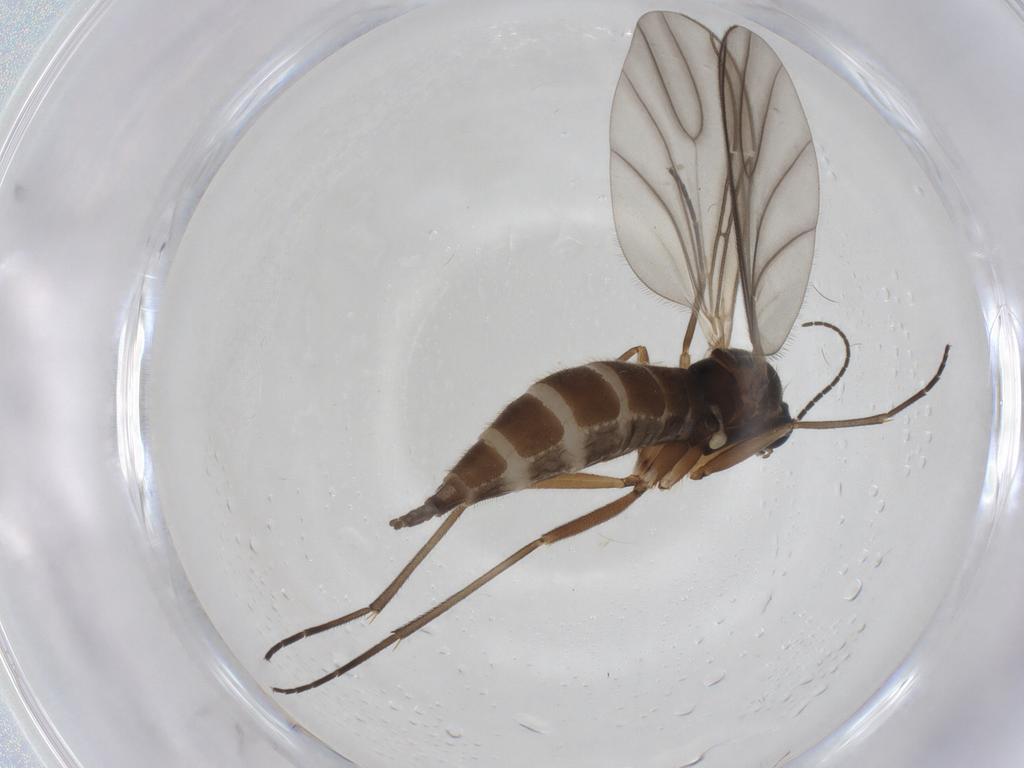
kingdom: Animalia
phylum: Arthropoda
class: Insecta
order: Diptera
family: Sciaridae
